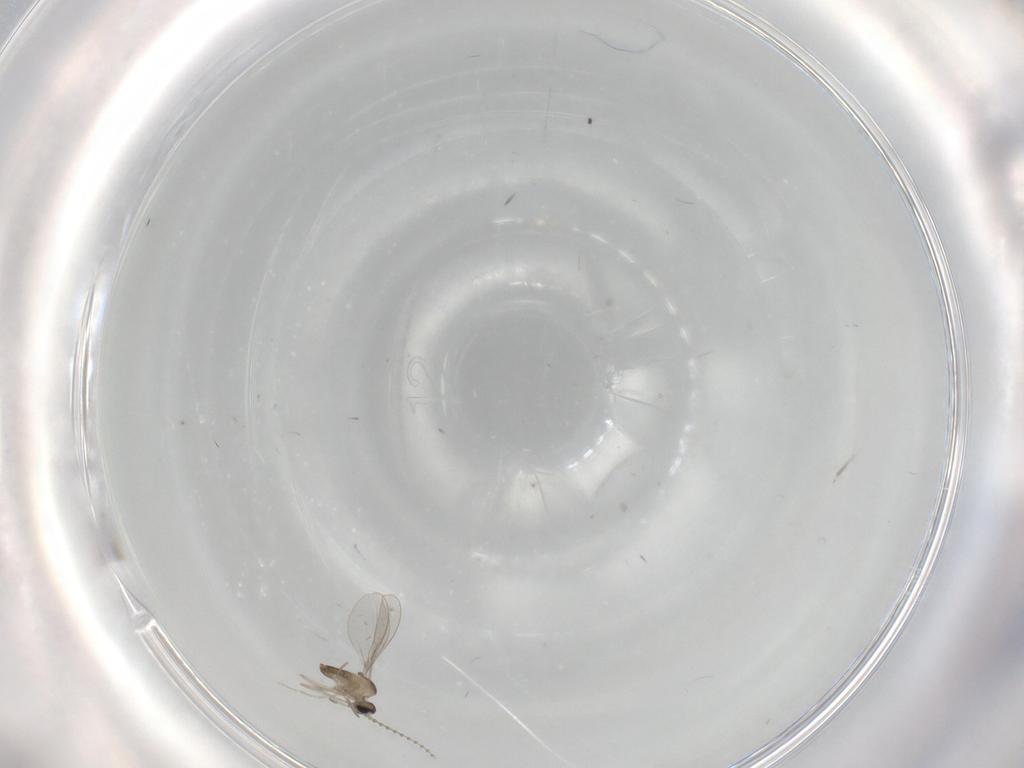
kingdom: Animalia
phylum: Arthropoda
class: Insecta
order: Diptera
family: Cecidomyiidae
